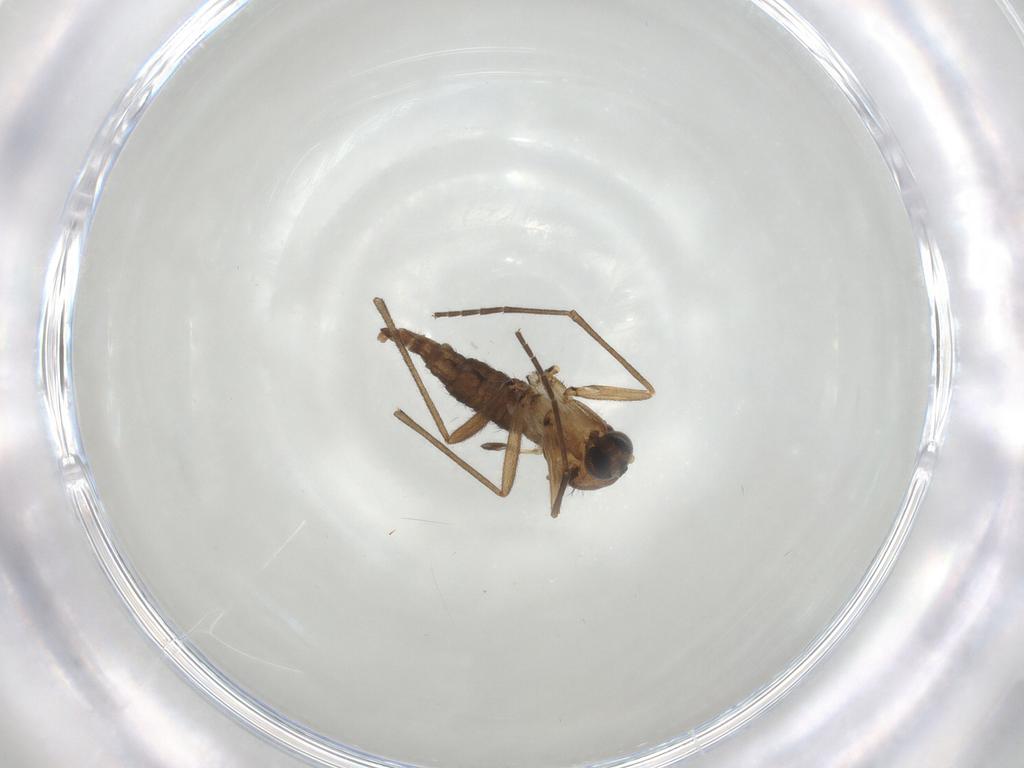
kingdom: Animalia
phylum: Arthropoda
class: Insecta
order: Diptera
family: Sciaridae
